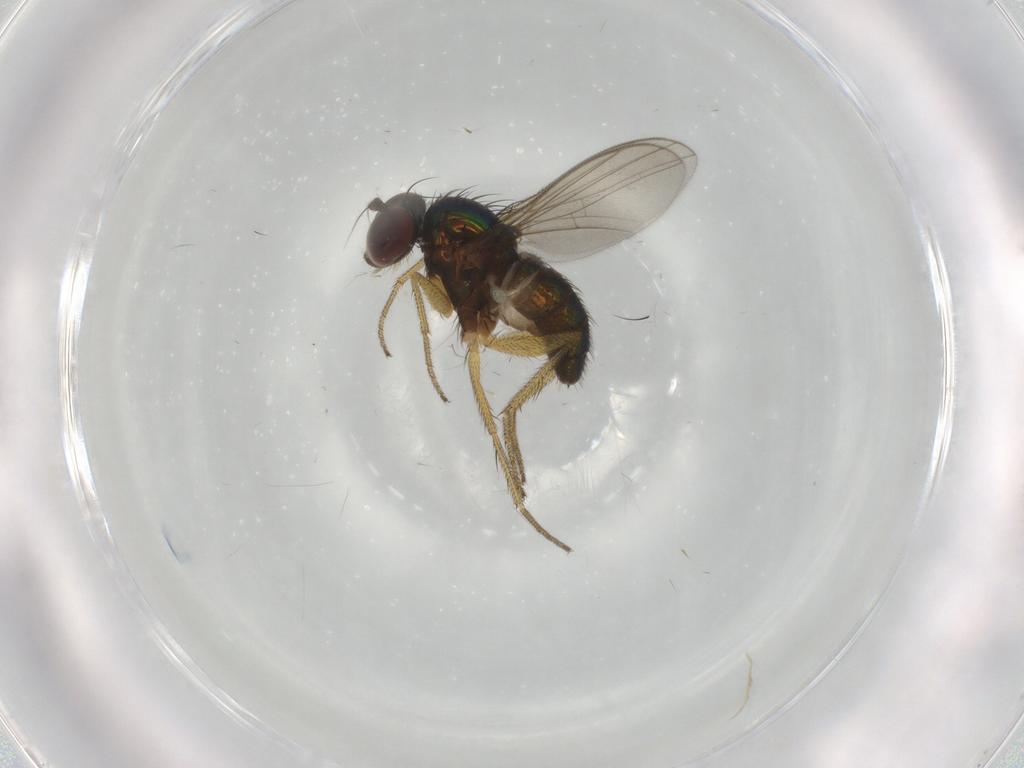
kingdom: Animalia
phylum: Arthropoda
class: Insecta
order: Diptera
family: Dolichopodidae
